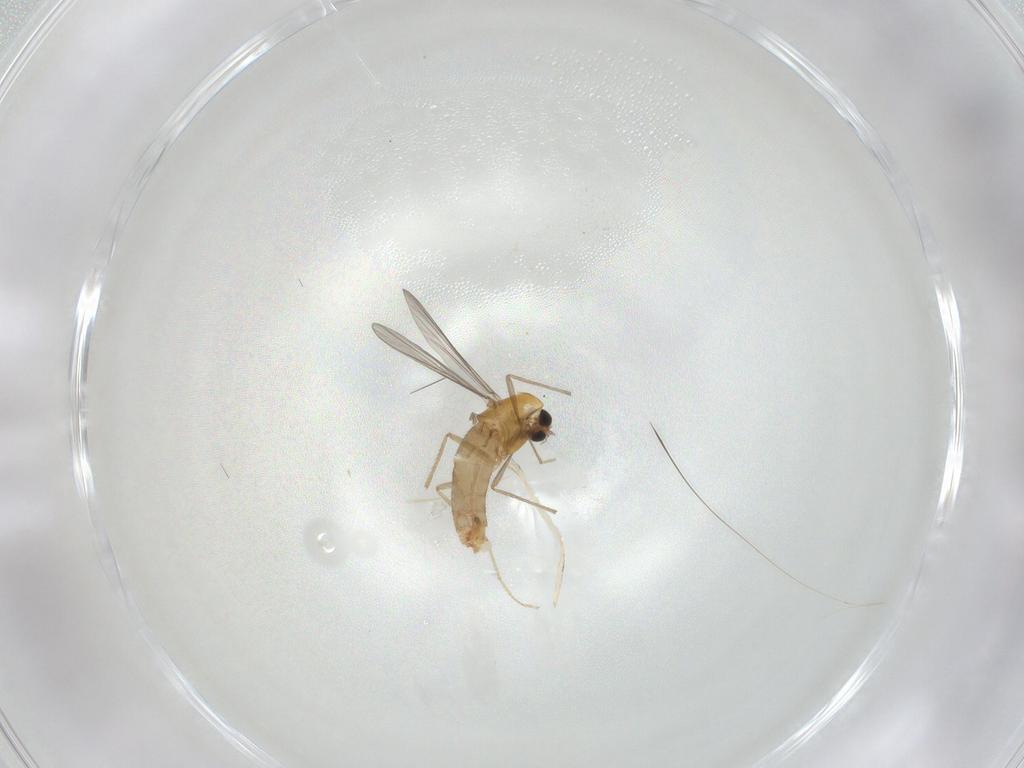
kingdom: Animalia
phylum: Arthropoda
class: Insecta
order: Diptera
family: Chironomidae
